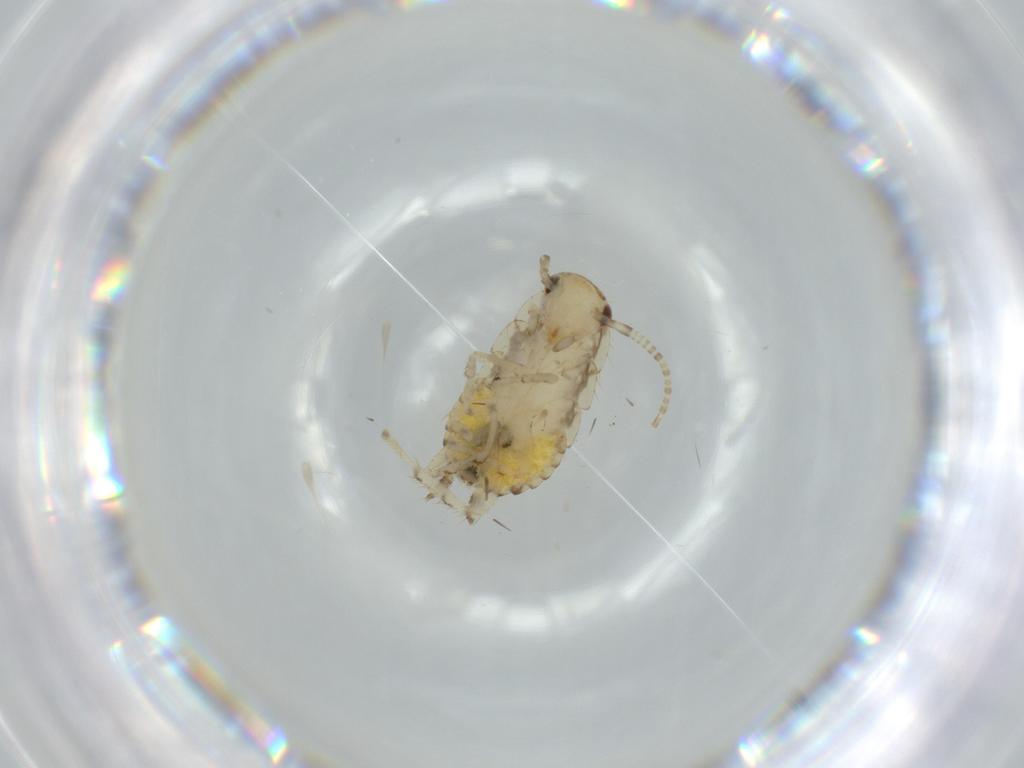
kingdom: Animalia
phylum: Arthropoda
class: Insecta
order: Blattodea
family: Ectobiidae
